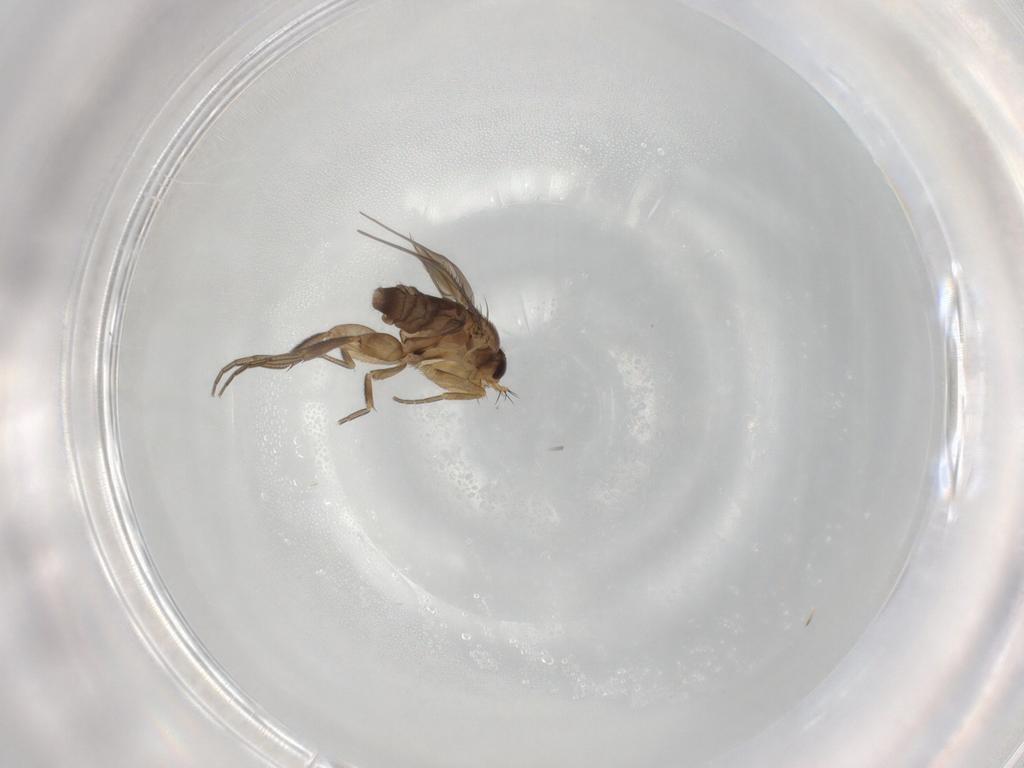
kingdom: Animalia
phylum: Arthropoda
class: Insecta
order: Diptera
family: Phoridae
